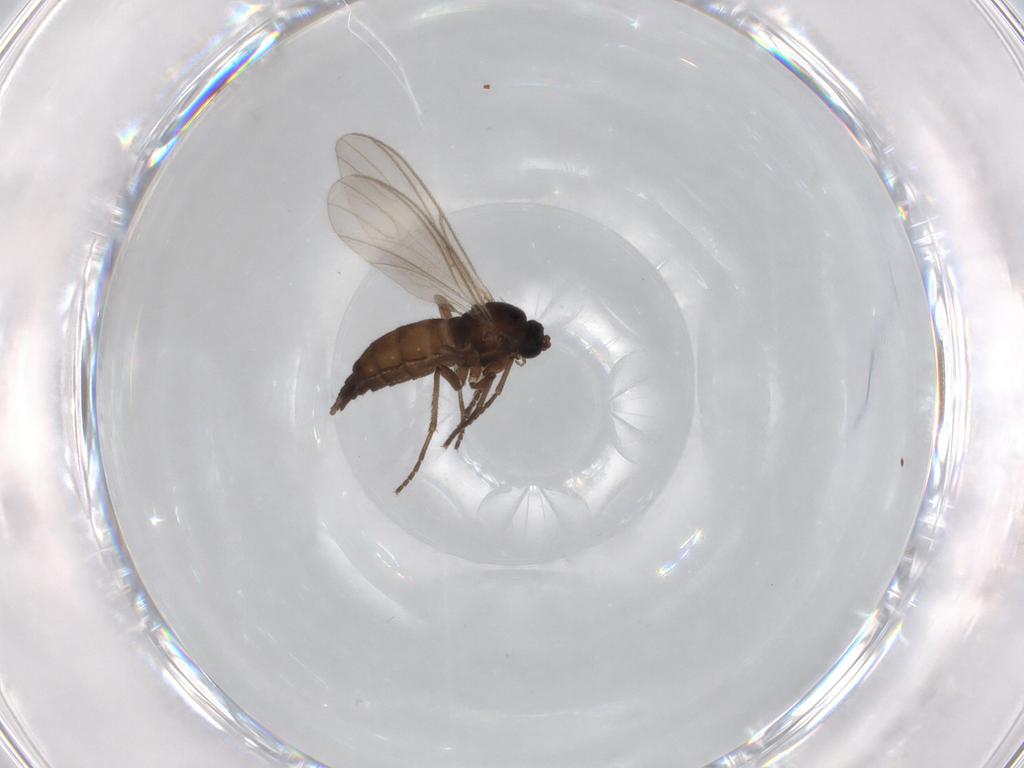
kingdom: Animalia
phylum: Arthropoda
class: Insecta
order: Diptera
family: Sciaridae
